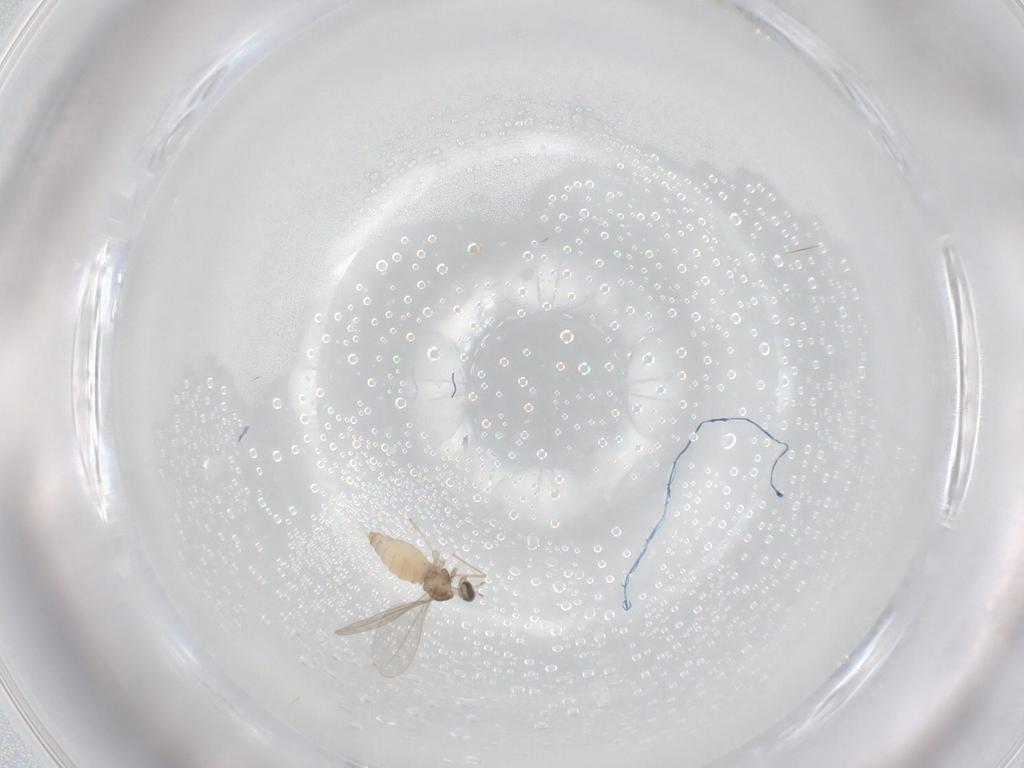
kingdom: Animalia
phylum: Arthropoda
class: Insecta
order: Diptera
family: Cecidomyiidae
